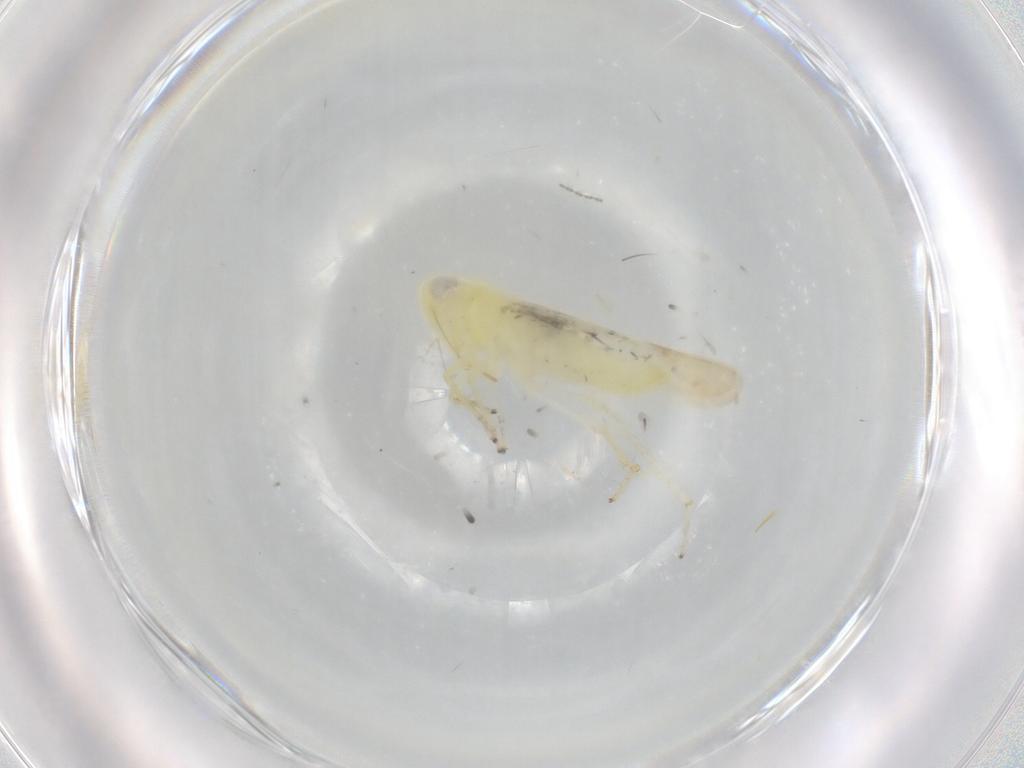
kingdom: Animalia
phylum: Arthropoda
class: Insecta
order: Hemiptera
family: Cicadellidae
